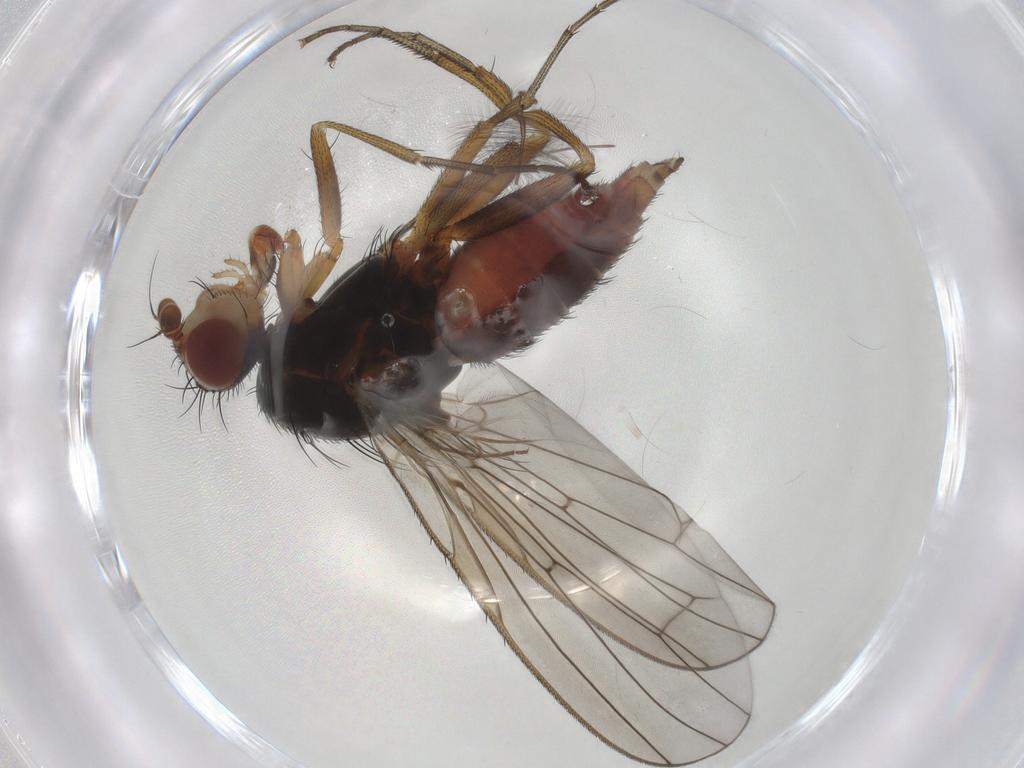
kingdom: Animalia
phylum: Arthropoda
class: Insecta
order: Diptera
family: Heleomyzidae
